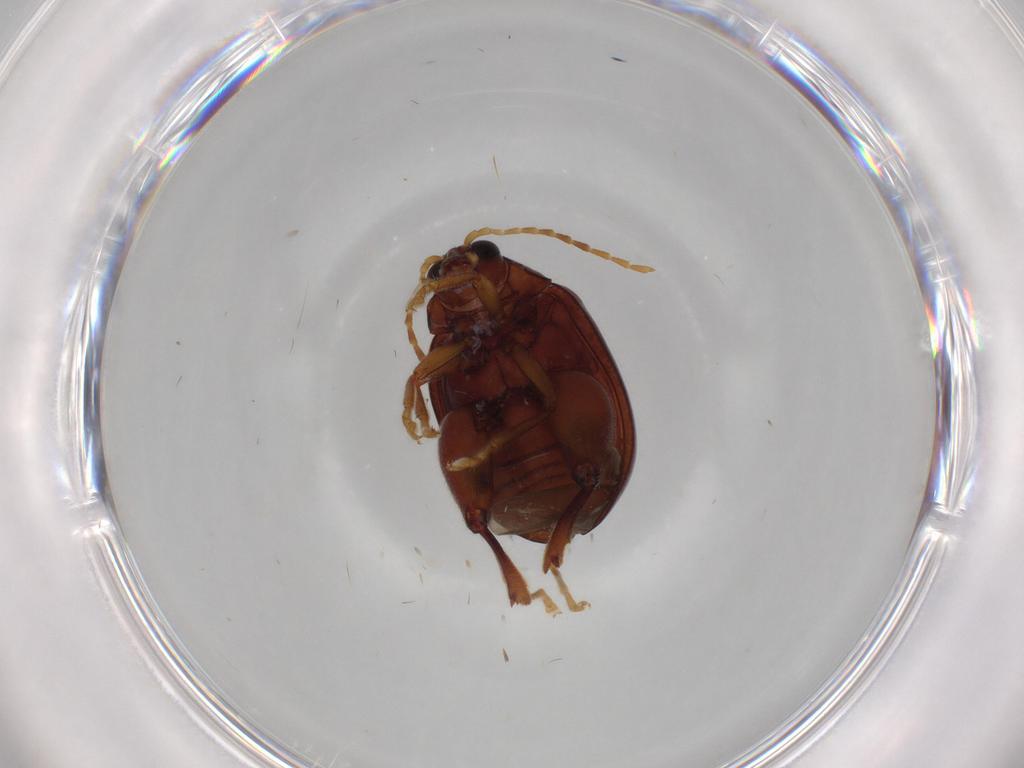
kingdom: Animalia
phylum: Arthropoda
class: Insecta
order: Coleoptera
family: Chrysomelidae
